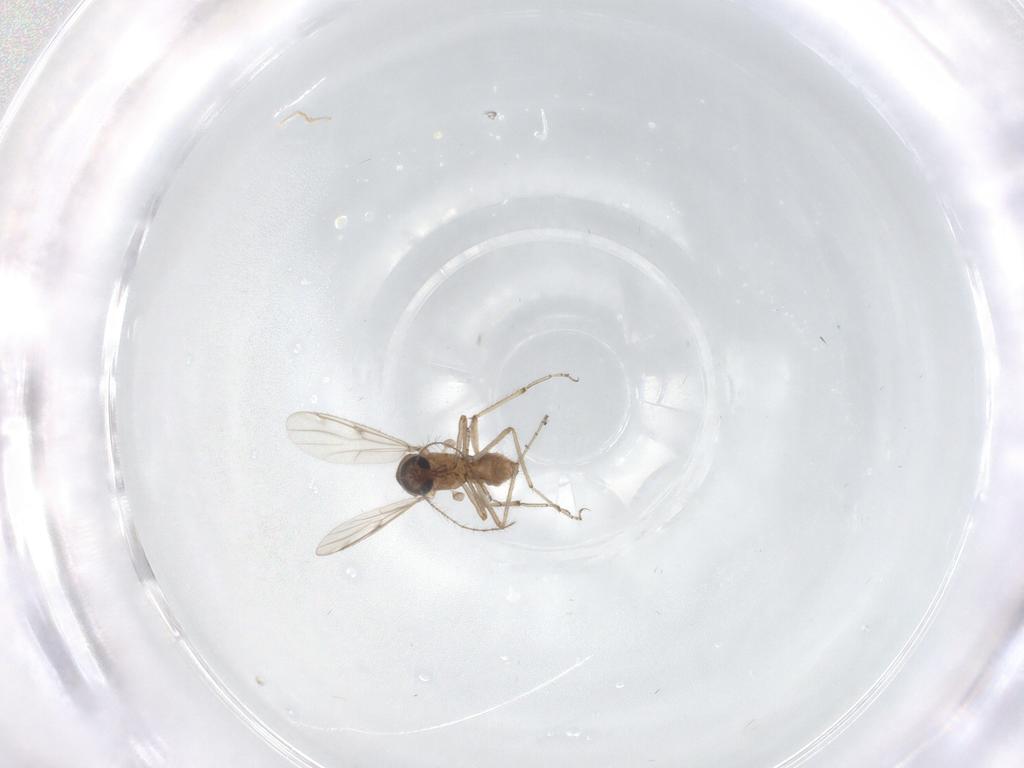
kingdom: Animalia
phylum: Arthropoda
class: Insecta
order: Diptera
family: Ceratopogonidae
